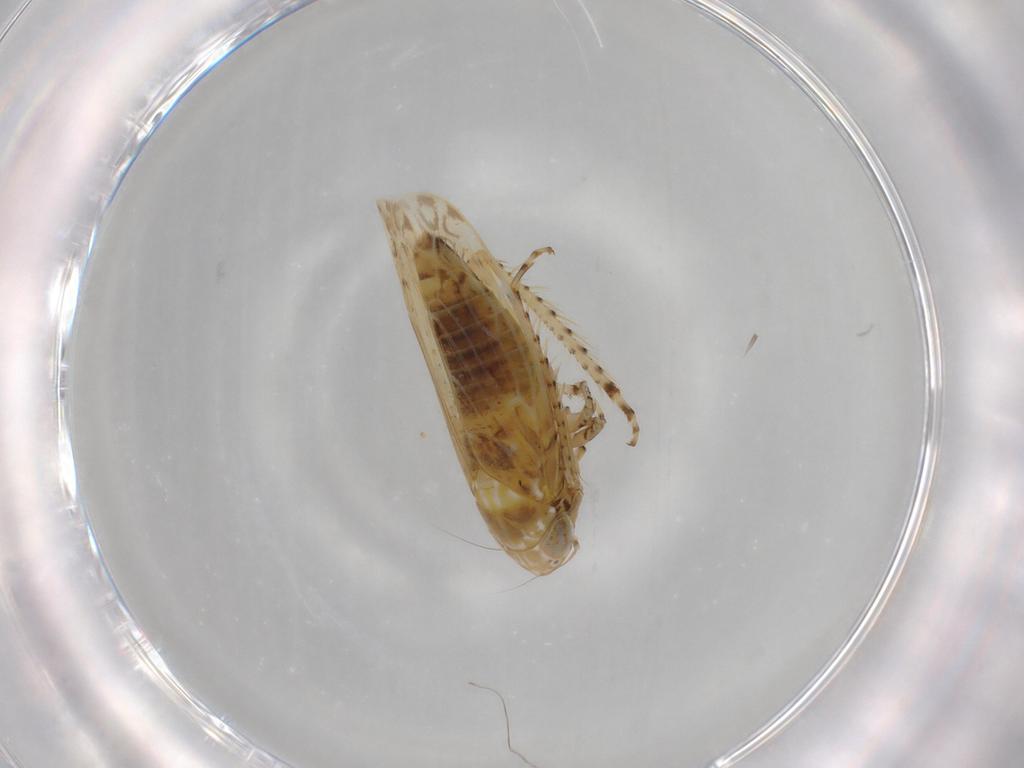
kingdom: Animalia
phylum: Arthropoda
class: Insecta
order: Hemiptera
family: Cicadellidae
